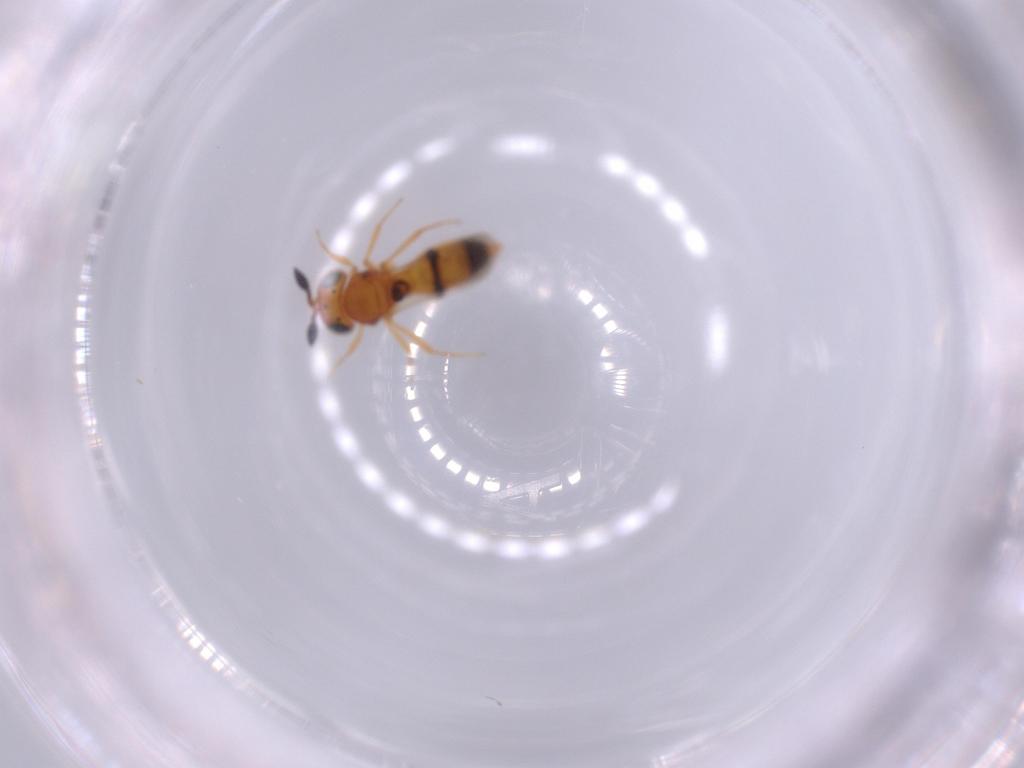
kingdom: Animalia
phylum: Arthropoda
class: Insecta
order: Hymenoptera
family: Scelionidae
